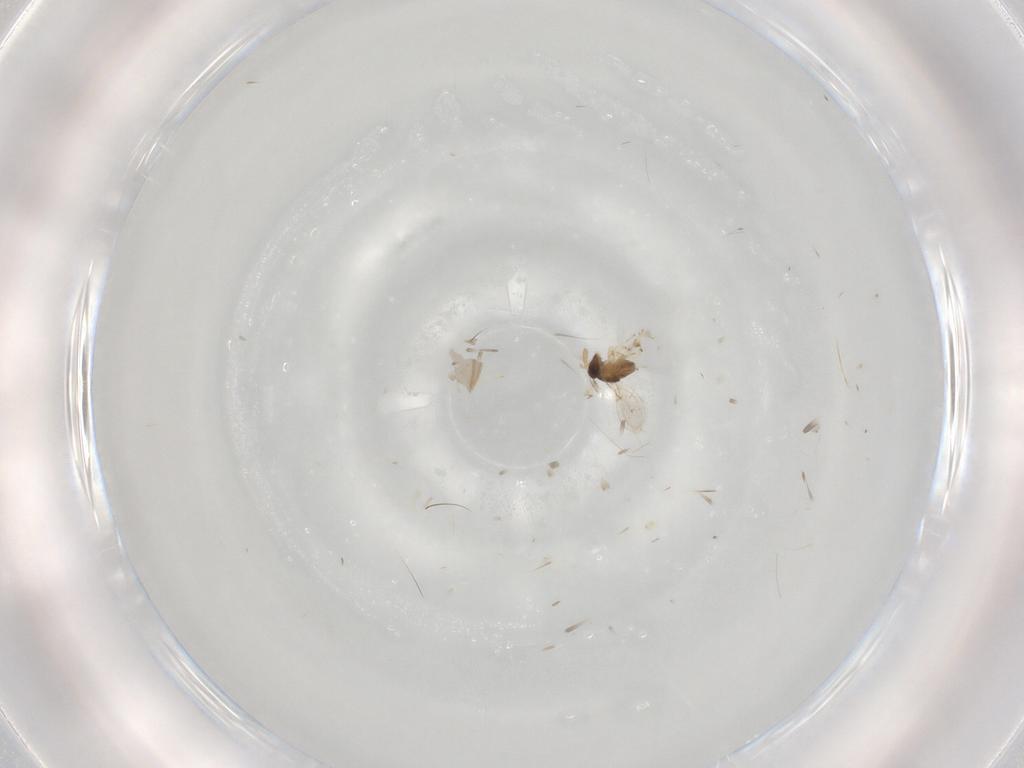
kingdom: Animalia
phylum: Arthropoda
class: Insecta
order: Hymenoptera
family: Encyrtidae
